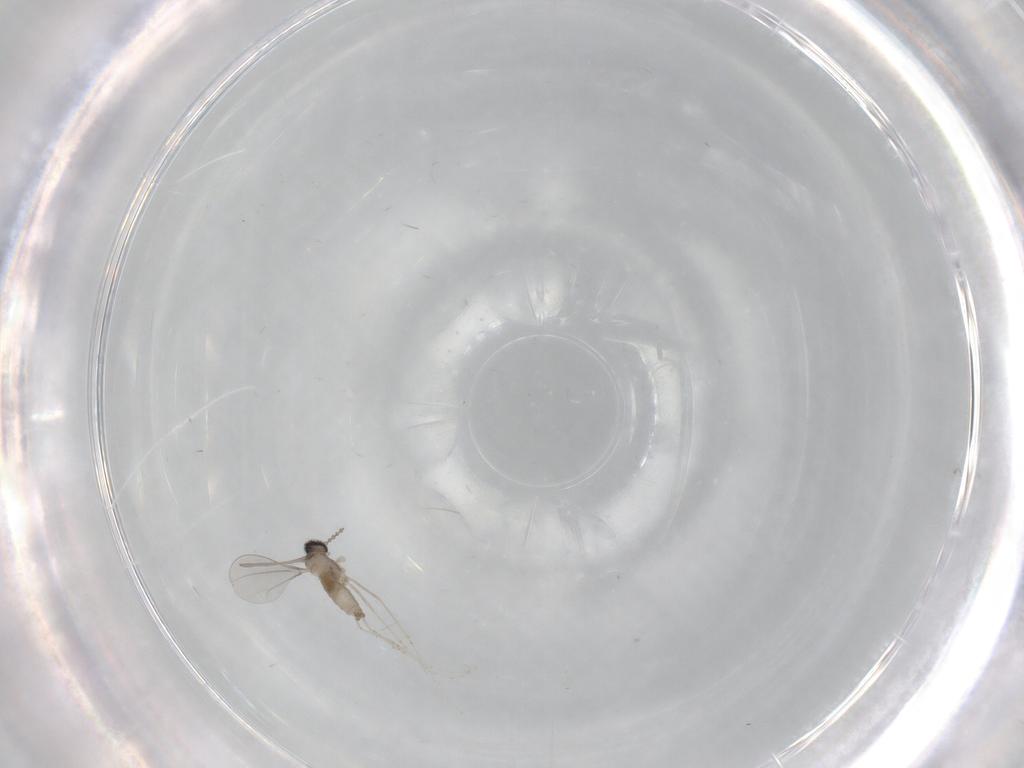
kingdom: Animalia
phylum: Arthropoda
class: Insecta
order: Diptera
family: Cecidomyiidae
